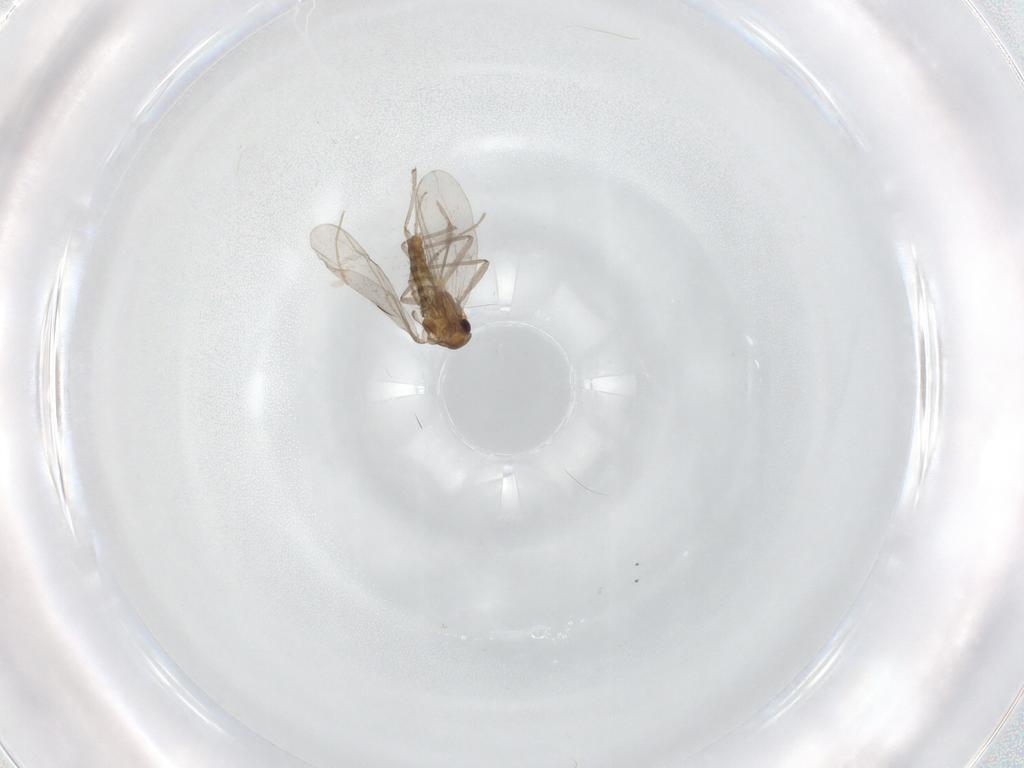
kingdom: Animalia
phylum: Arthropoda
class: Insecta
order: Diptera
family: Chironomidae
